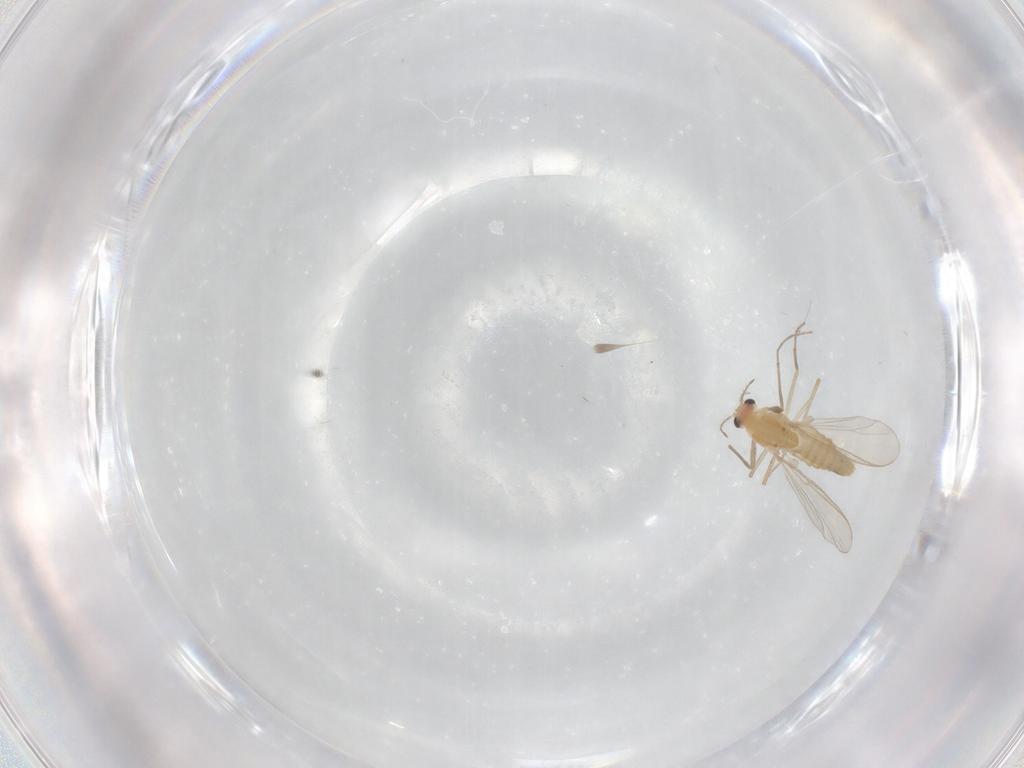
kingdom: Animalia
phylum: Arthropoda
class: Insecta
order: Diptera
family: Chironomidae
